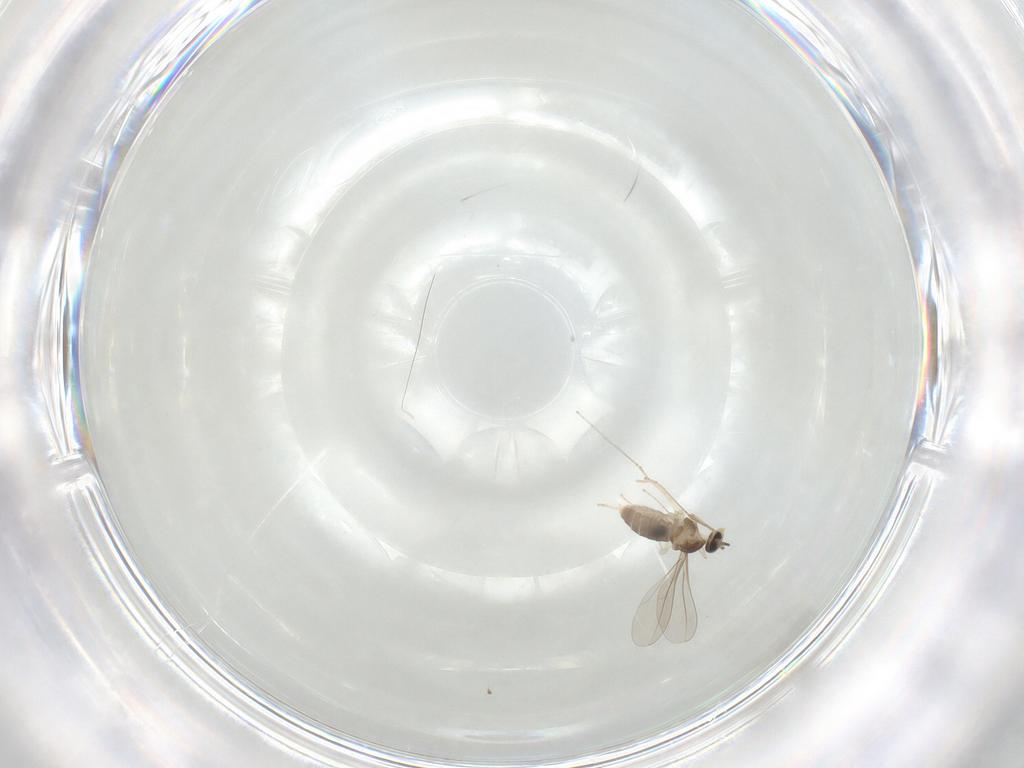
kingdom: Animalia
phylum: Arthropoda
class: Insecta
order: Diptera
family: Cecidomyiidae
